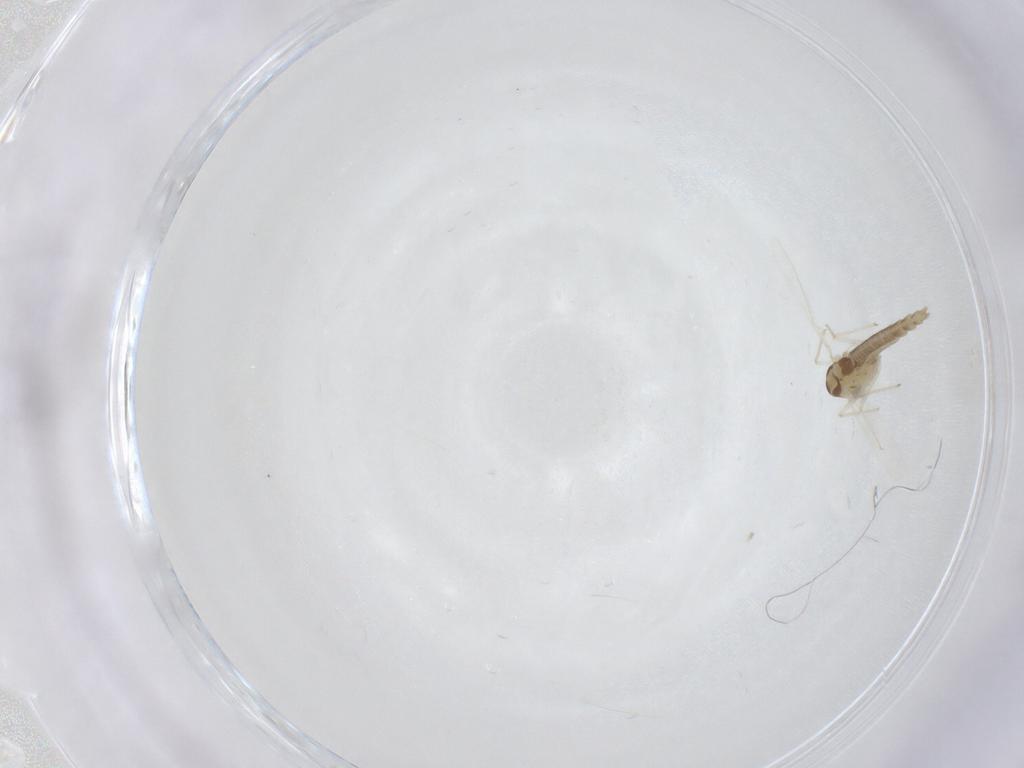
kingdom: Animalia
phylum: Arthropoda
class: Insecta
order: Diptera
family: Chironomidae
